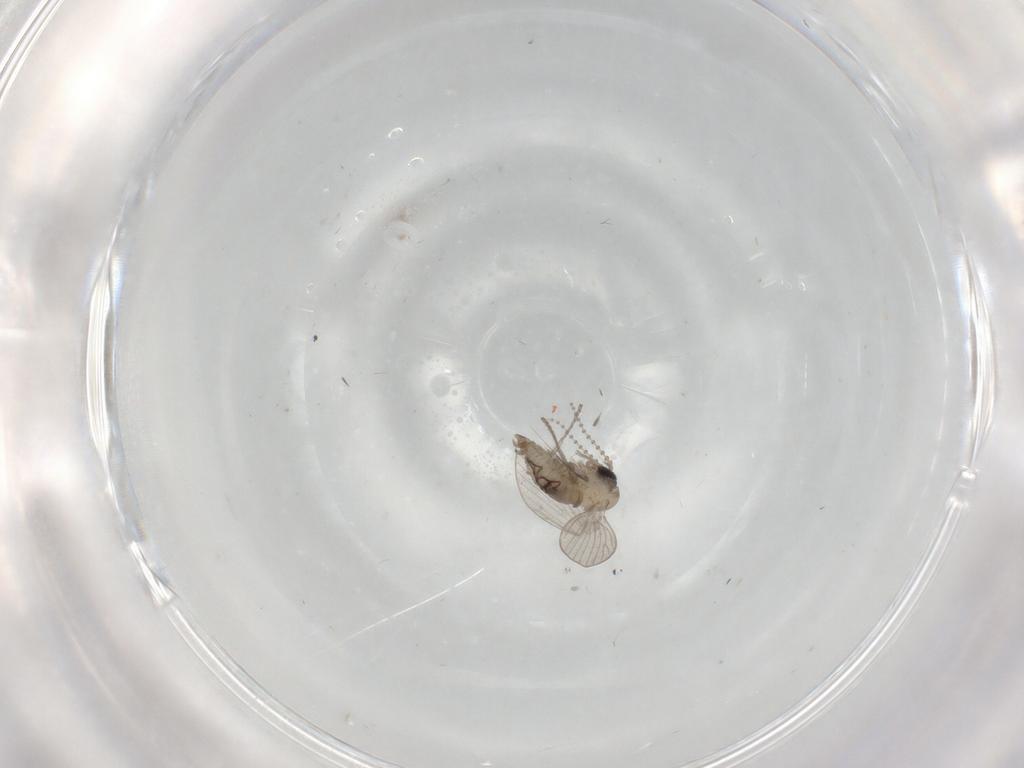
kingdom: Animalia
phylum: Arthropoda
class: Insecta
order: Diptera
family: Psychodidae
